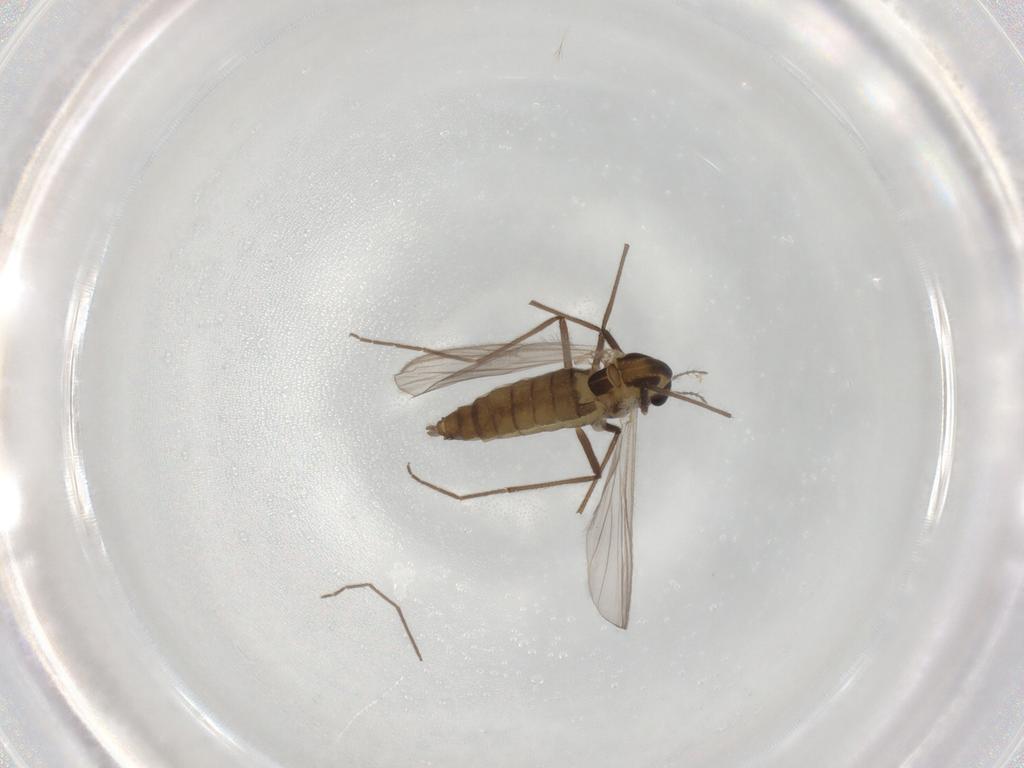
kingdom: Animalia
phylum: Arthropoda
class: Insecta
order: Diptera
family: Chironomidae
